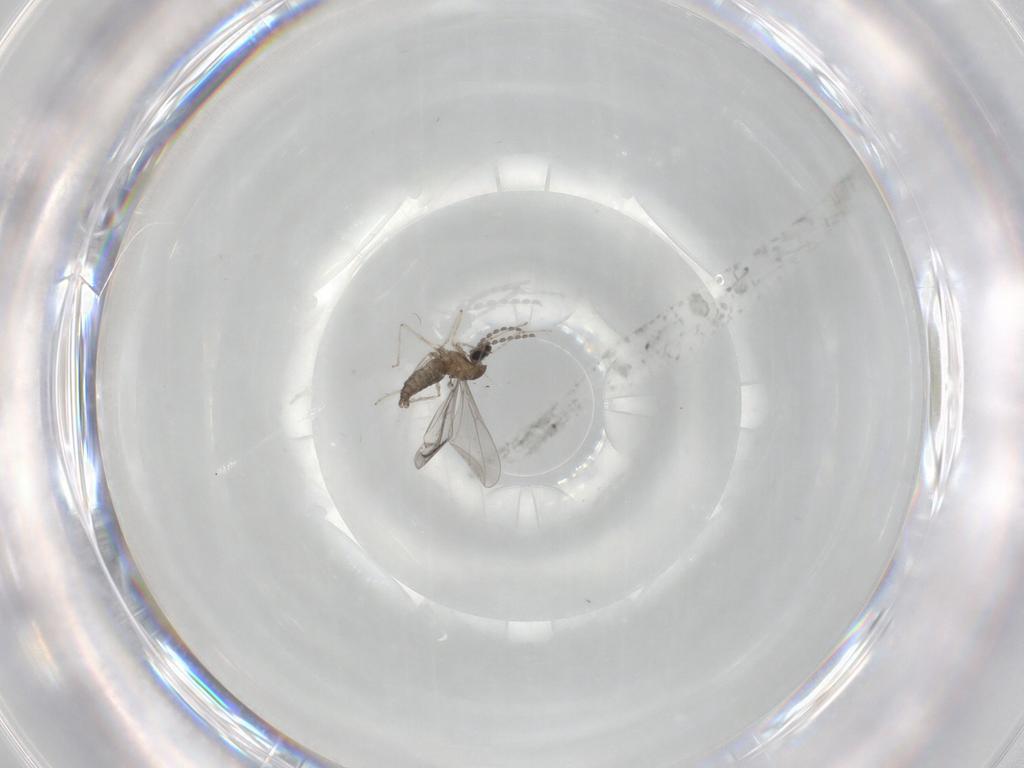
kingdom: Animalia
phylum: Arthropoda
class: Insecta
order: Diptera
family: Cecidomyiidae
